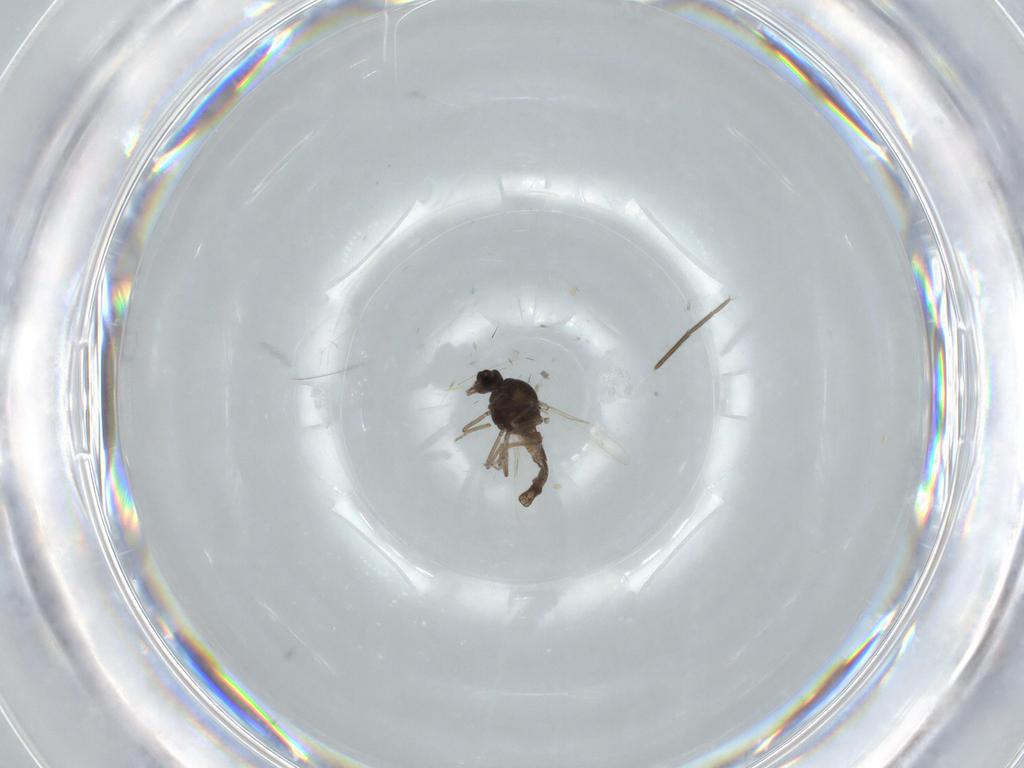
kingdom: Animalia
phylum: Arthropoda
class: Insecta
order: Diptera
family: Ceratopogonidae
